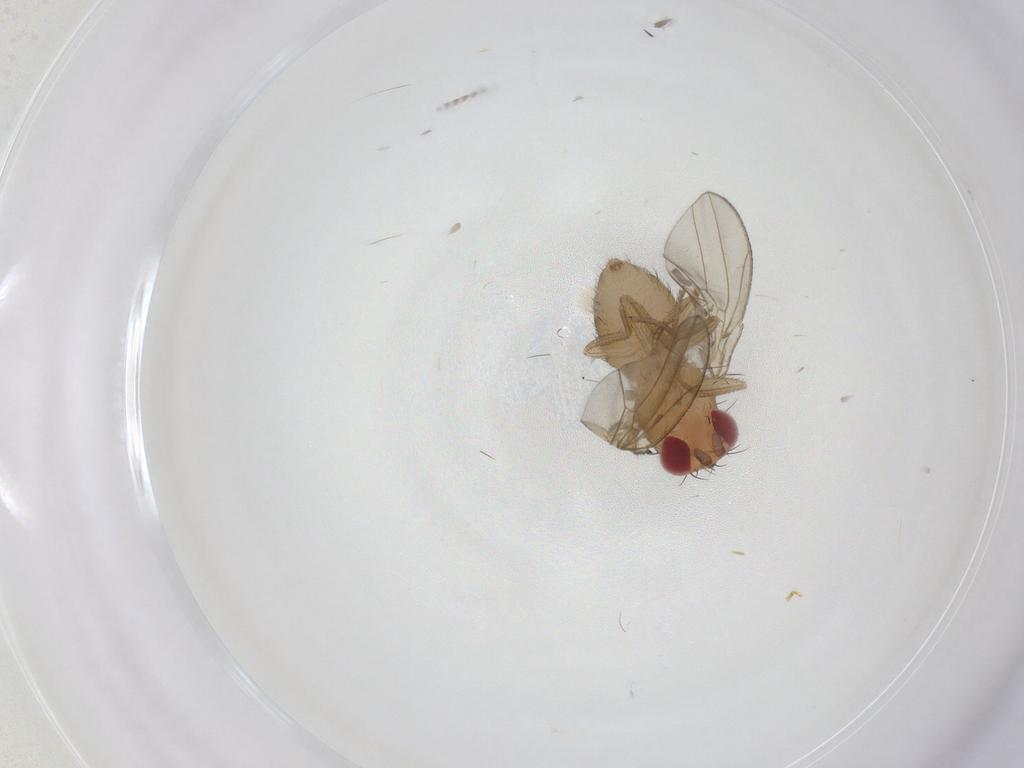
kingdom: Animalia
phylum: Arthropoda
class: Insecta
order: Diptera
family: Drosophilidae
